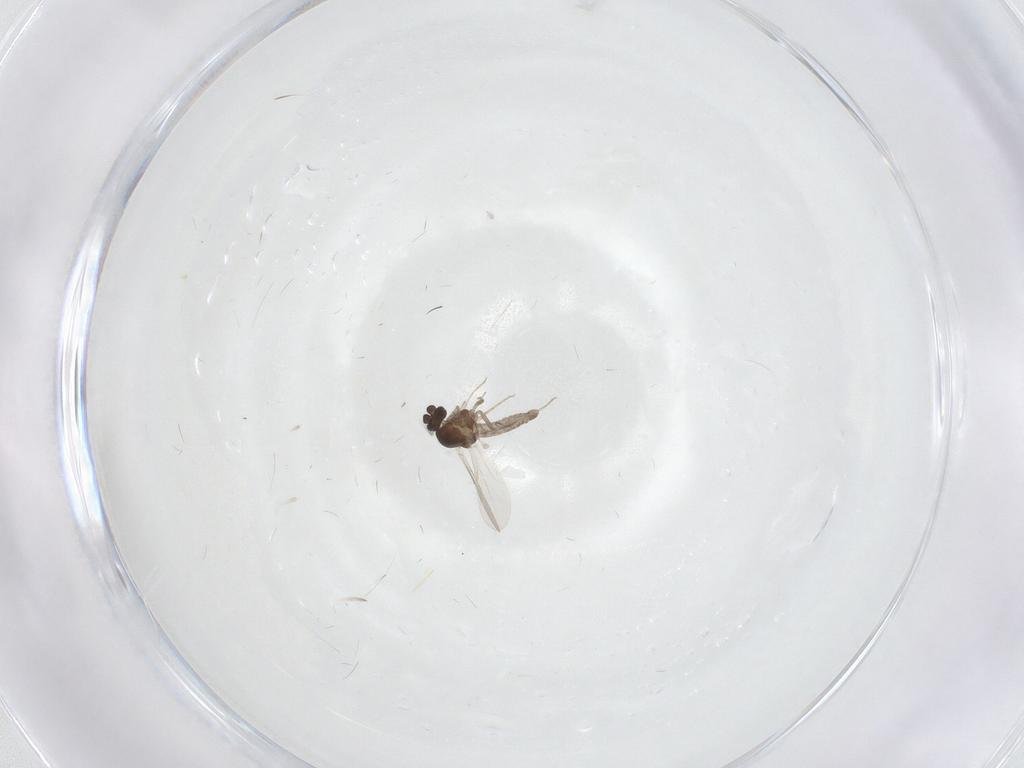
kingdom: Animalia
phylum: Arthropoda
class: Insecta
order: Diptera
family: Ceratopogonidae
